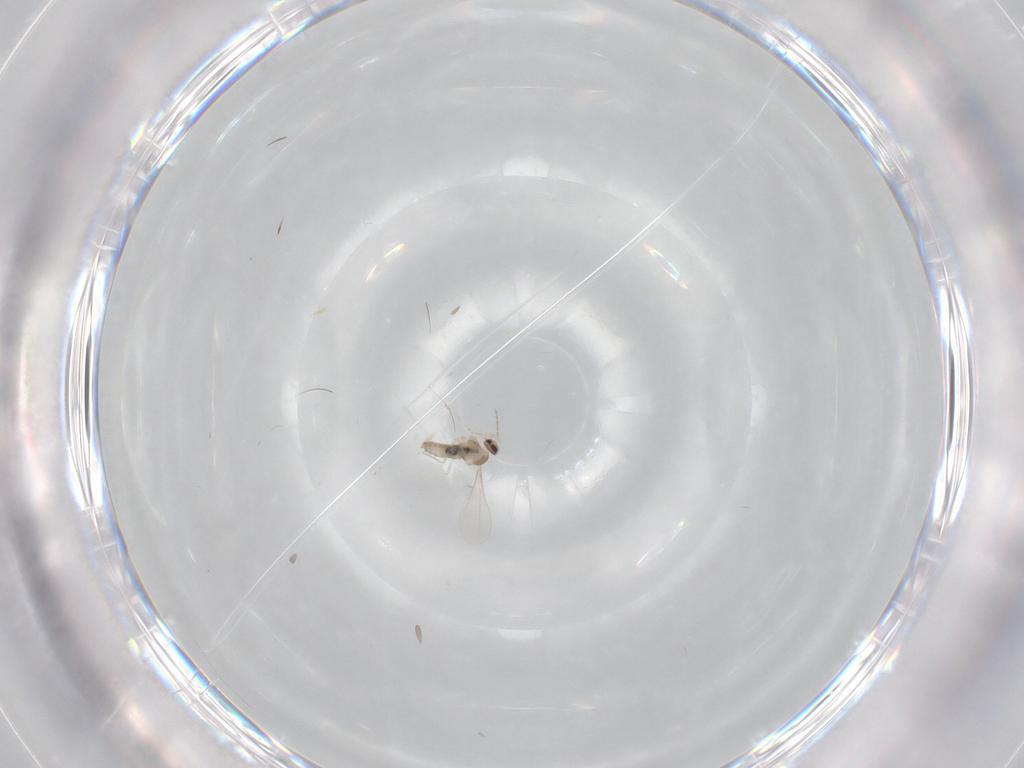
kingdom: Animalia
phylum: Arthropoda
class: Insecta
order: Diptera
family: Cecidomyiidae
